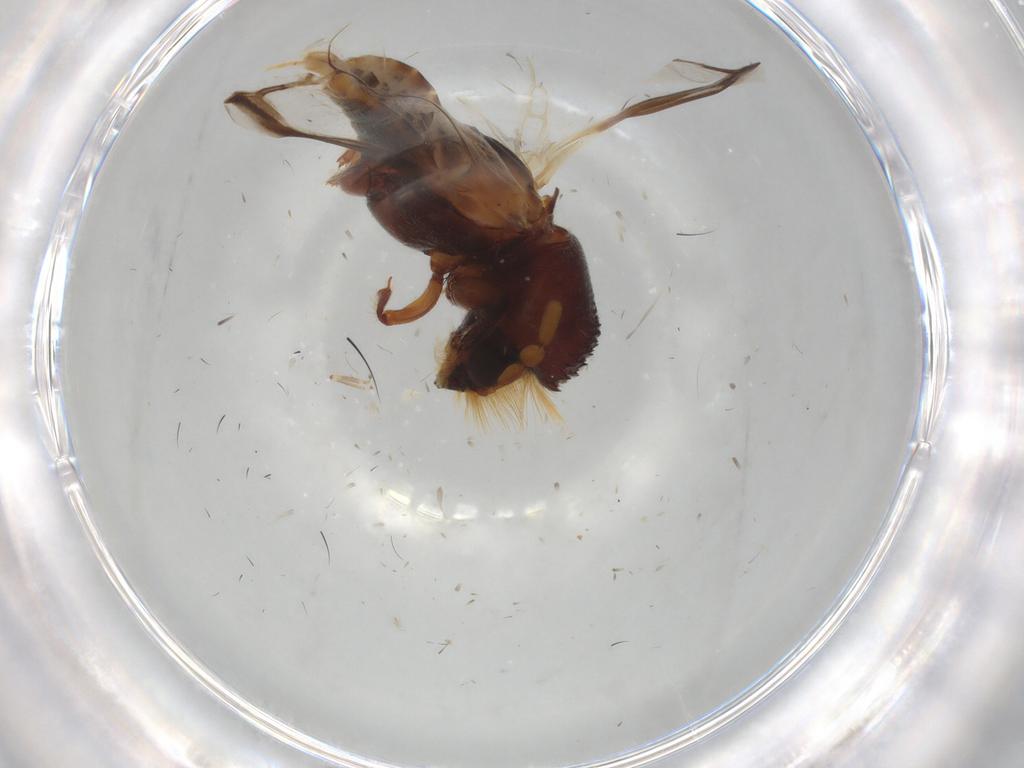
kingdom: Animalia
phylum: Arthropoda
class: Insecta
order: Coleoptera
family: Bostrichidae
